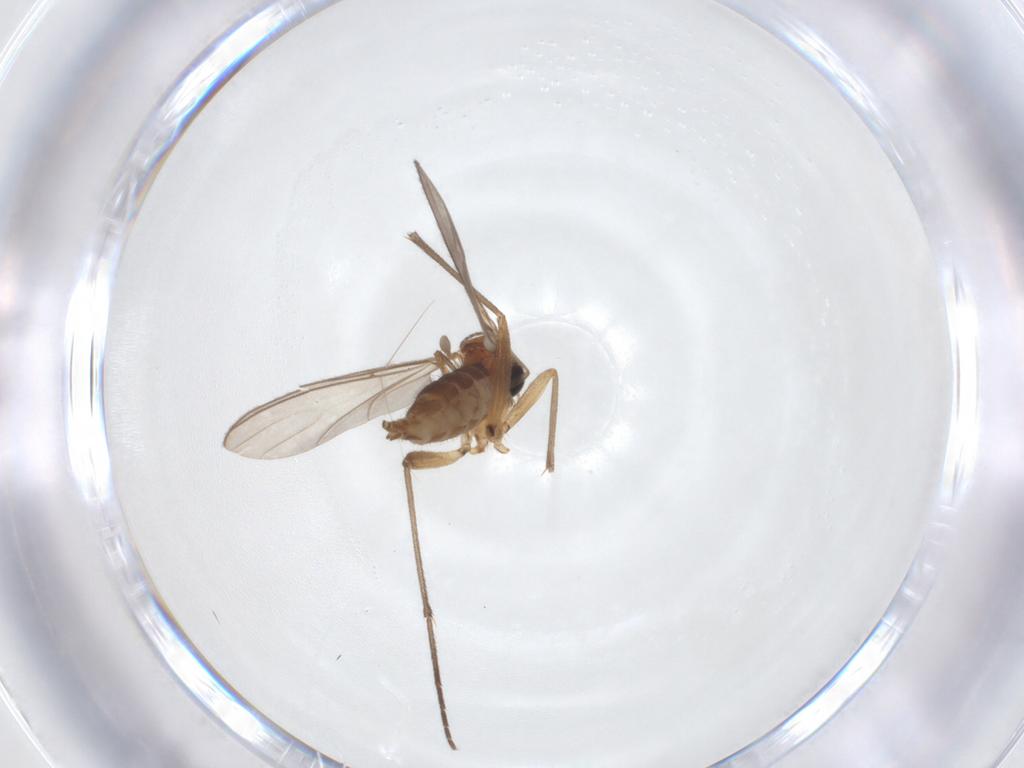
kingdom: Animalia
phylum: Arthropoda
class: Insecta
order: Diptera
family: Sciaridae
